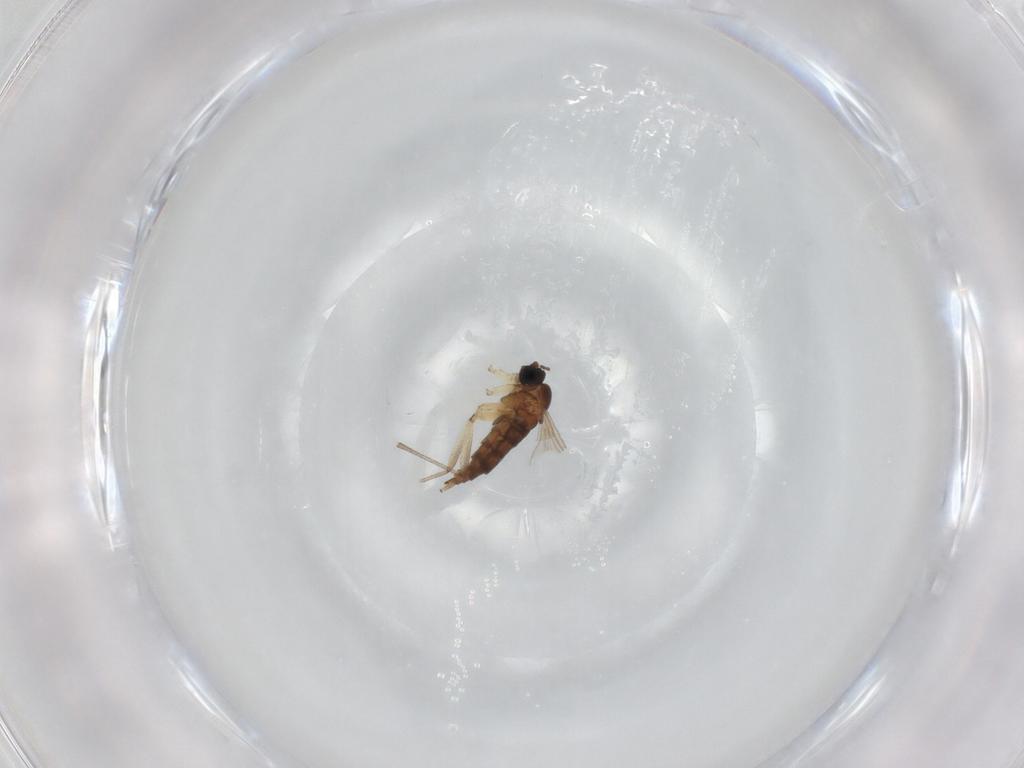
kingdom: Animalia
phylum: Arthropoda
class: Insecta
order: Diptera
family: Sciaridae
